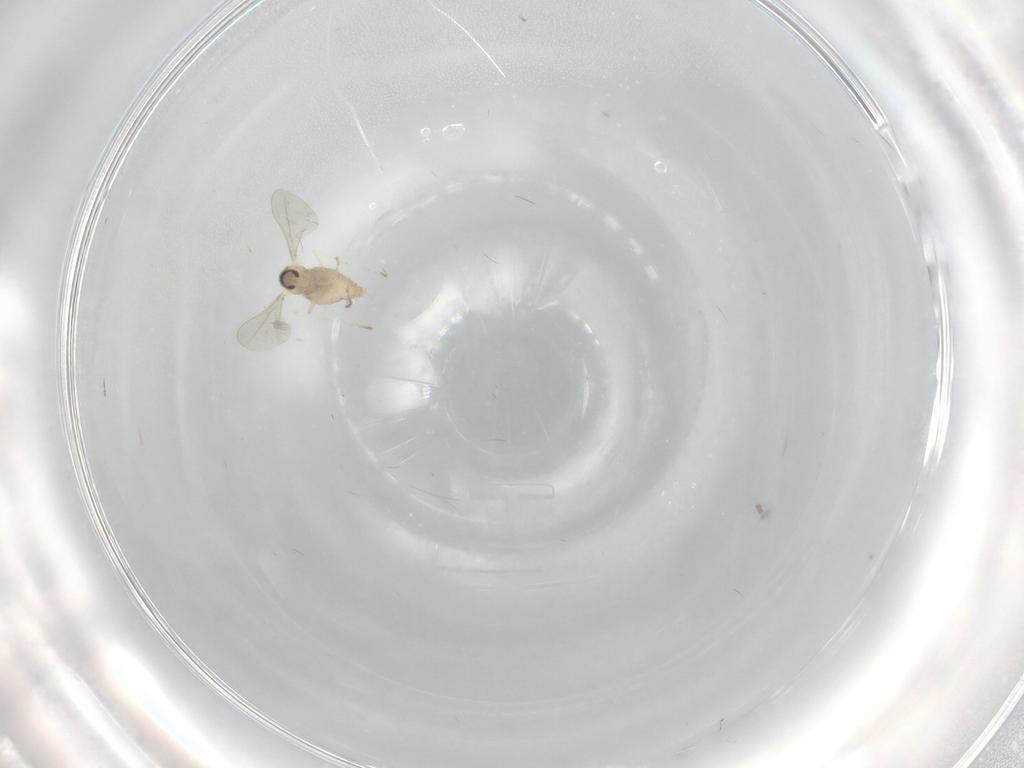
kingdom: Animalia
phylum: Arthropoda
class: Insecta
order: Diptera
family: Cecidomyiidae
